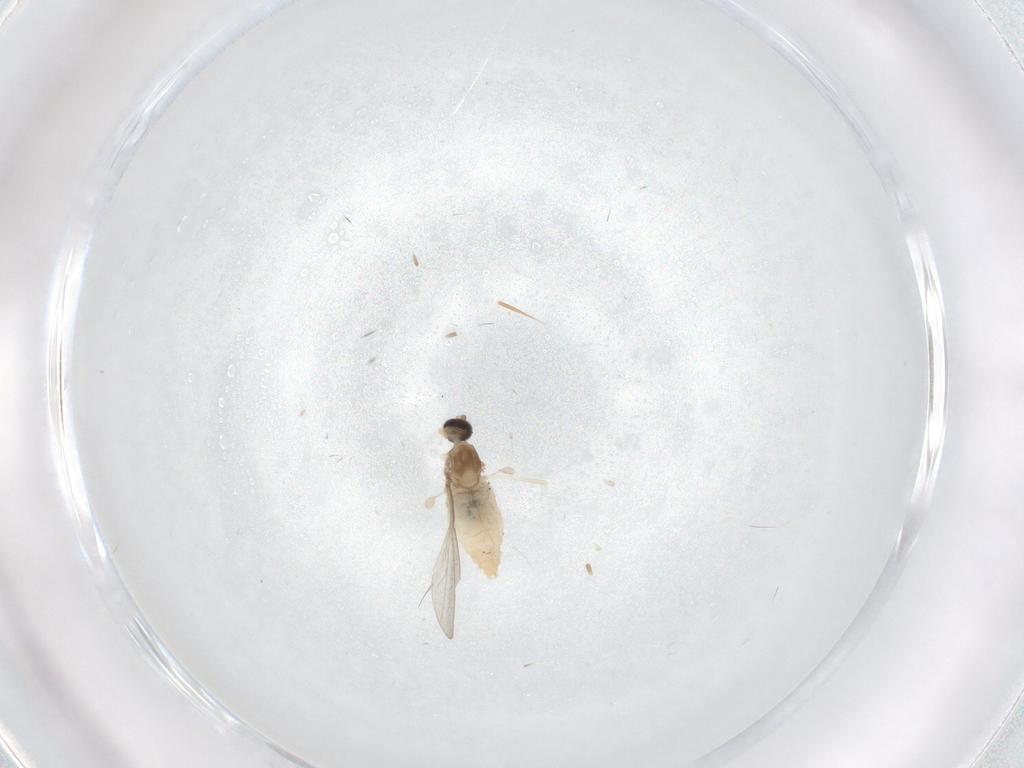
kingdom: Animalia
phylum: Arthropoda
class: Insecta
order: Diptera
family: Cecidomyiidae
